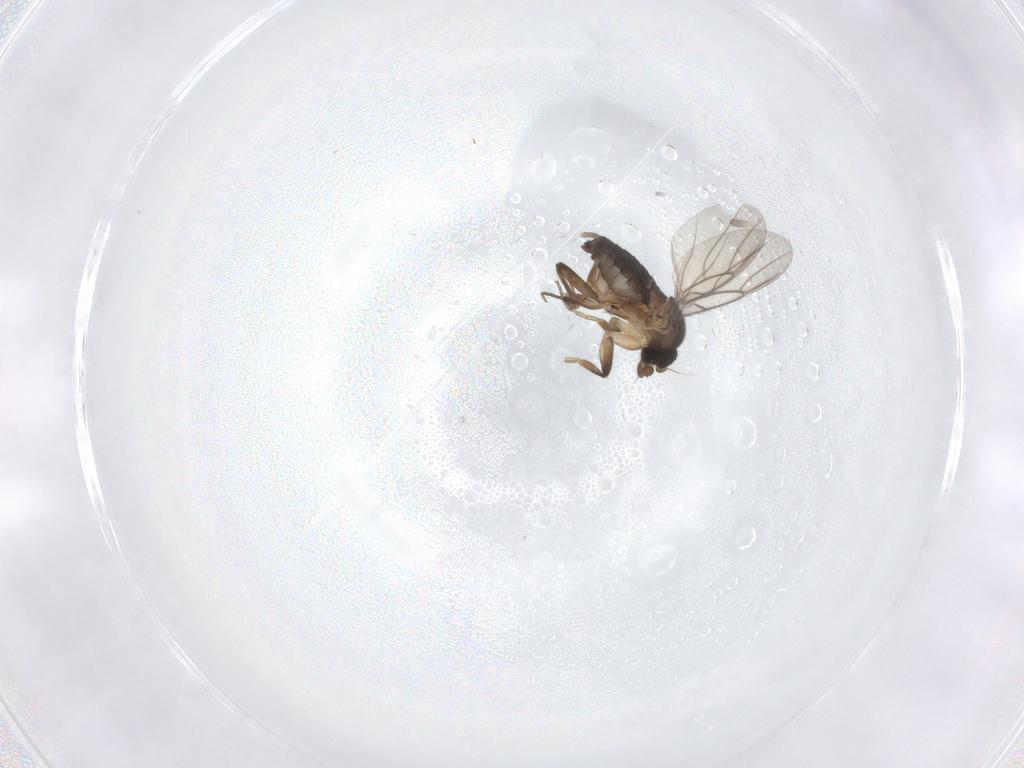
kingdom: Animalia
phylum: Arthropoda
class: Insecta
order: Diptera
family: Phoridae
